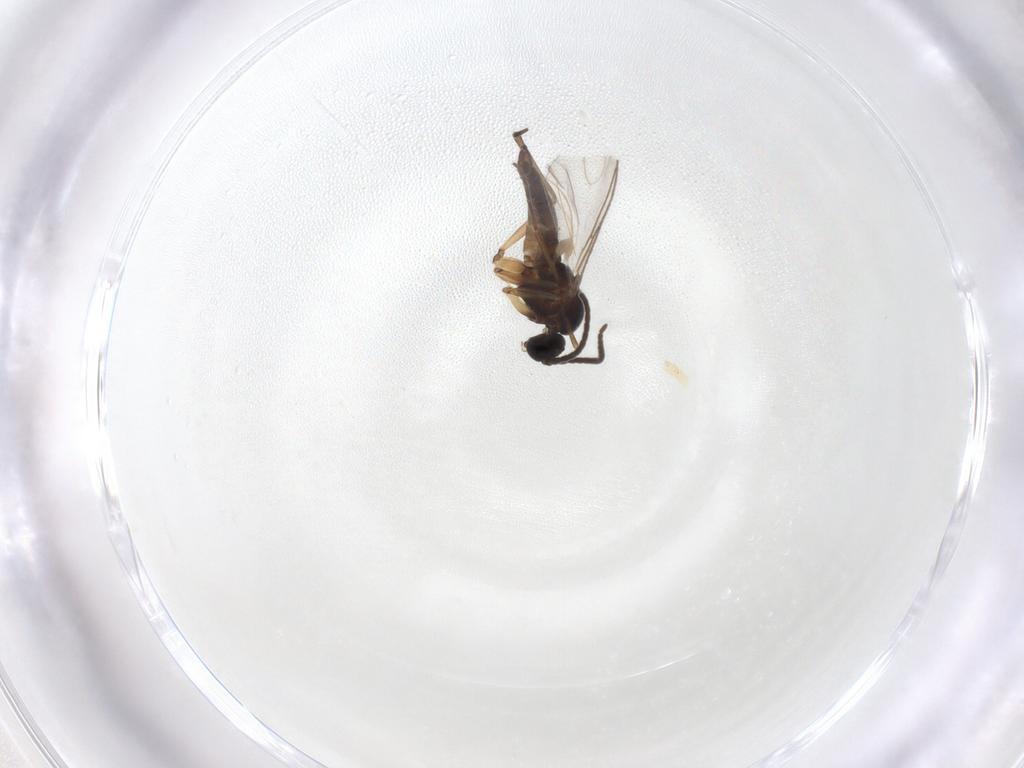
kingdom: Animalia
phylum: Arthropoda
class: Insecta
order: Diptera
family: Sciaridae
